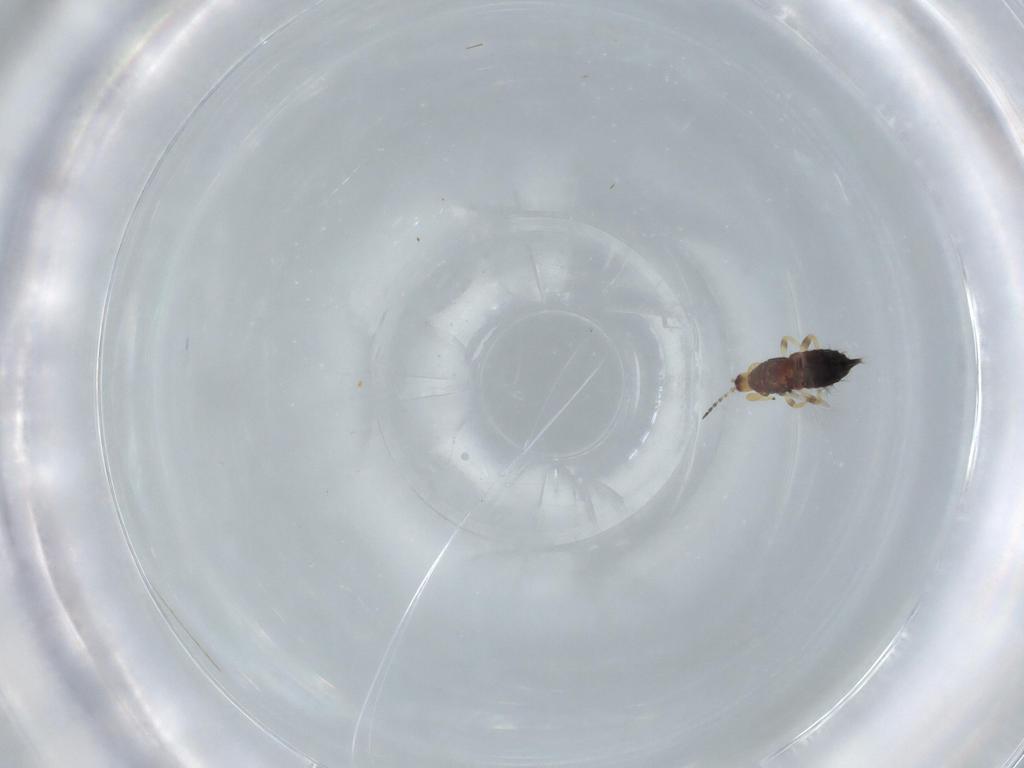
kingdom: Animalia
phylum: Arthropoda
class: Insecta
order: Thysanoptera
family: Phlaeothripidae
